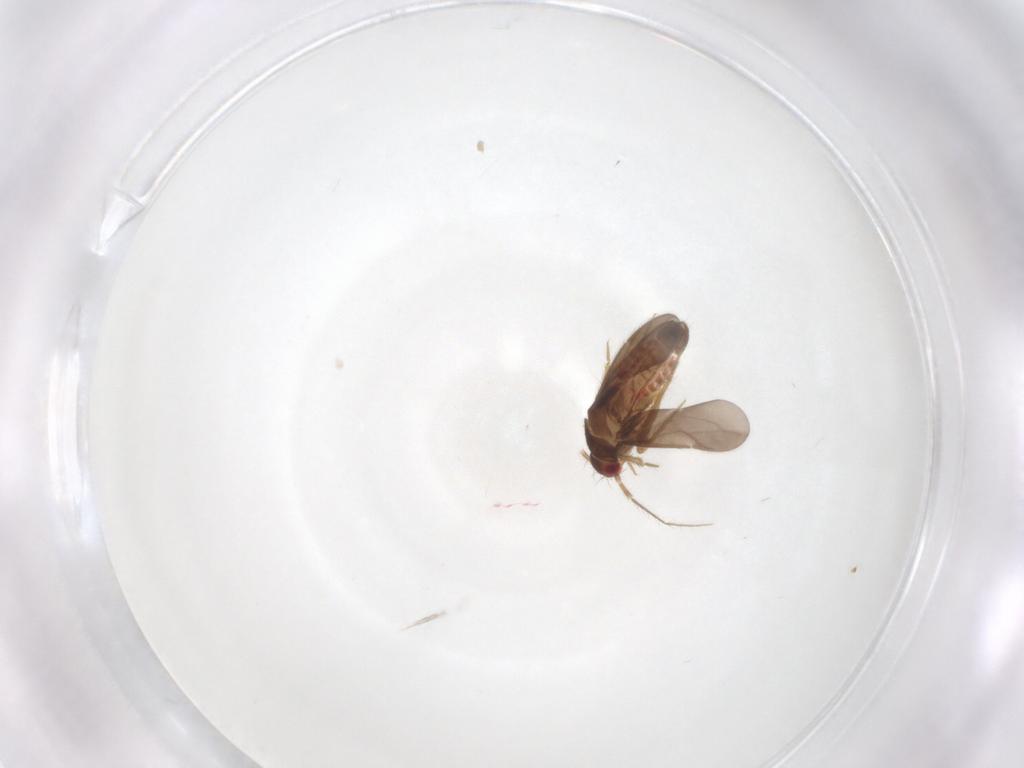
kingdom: Animalia
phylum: Arthropoda
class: Insecta
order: Hemiptera
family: Ceratocombidae
